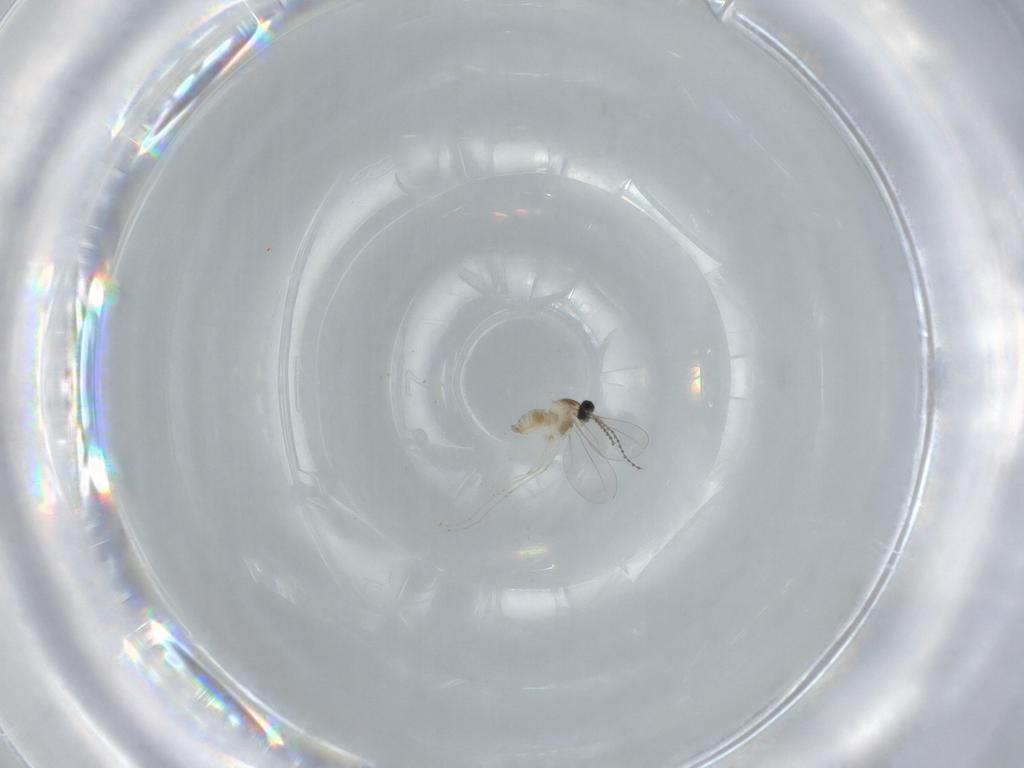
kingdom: Animalia
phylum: Arthropoda
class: Insecta
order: Diptera
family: Cecidomyiidae
